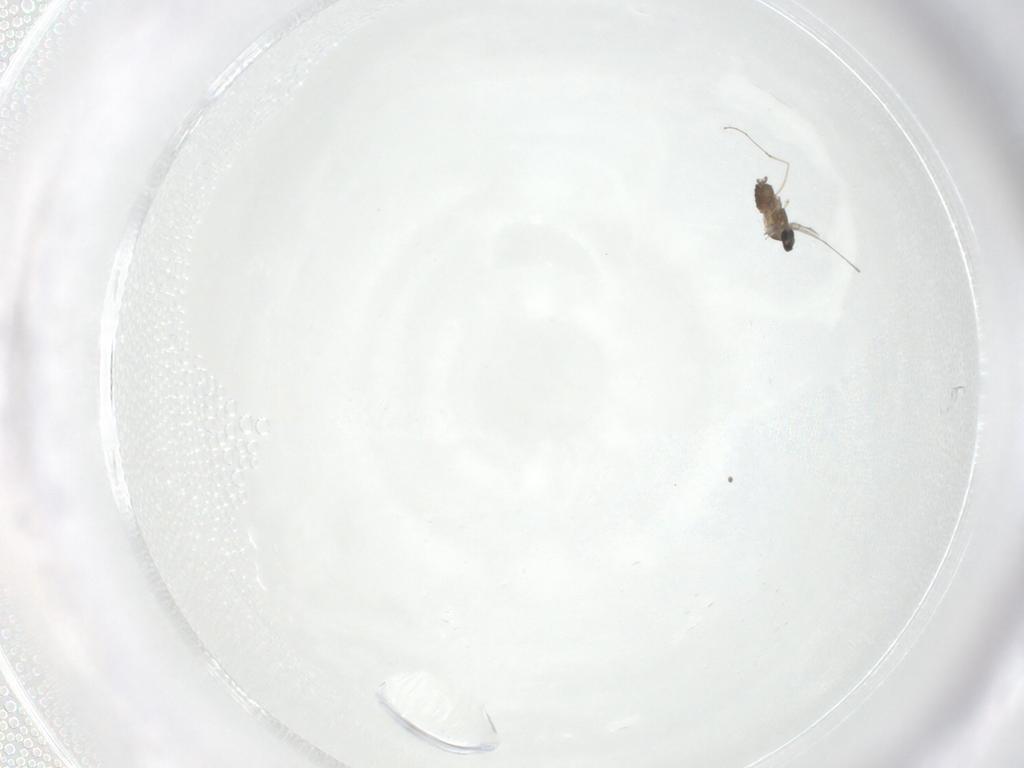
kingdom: Animalia
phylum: Arthropoda
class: Insecta
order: Diptera
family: Cecidomyiidae
